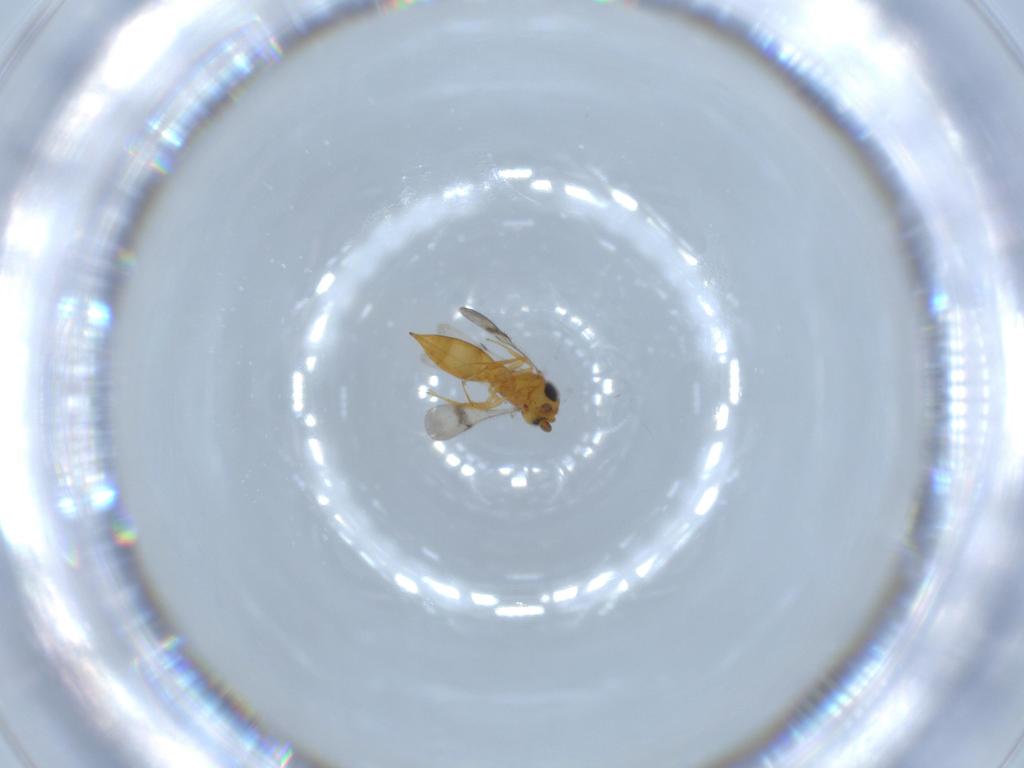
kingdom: Animalia
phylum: Arthropoda
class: Insecta
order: Hymenoptera
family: Scelionidae
